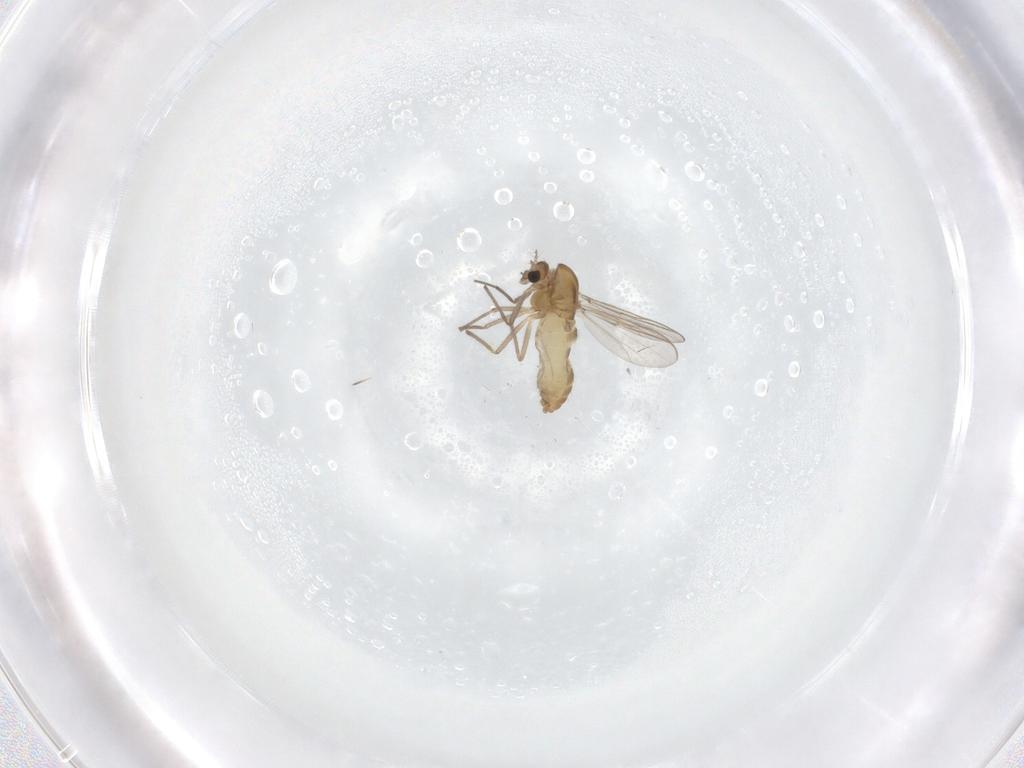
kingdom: Animalia
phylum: Arthropoda
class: Insecta
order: Diptera
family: Chironomidae
